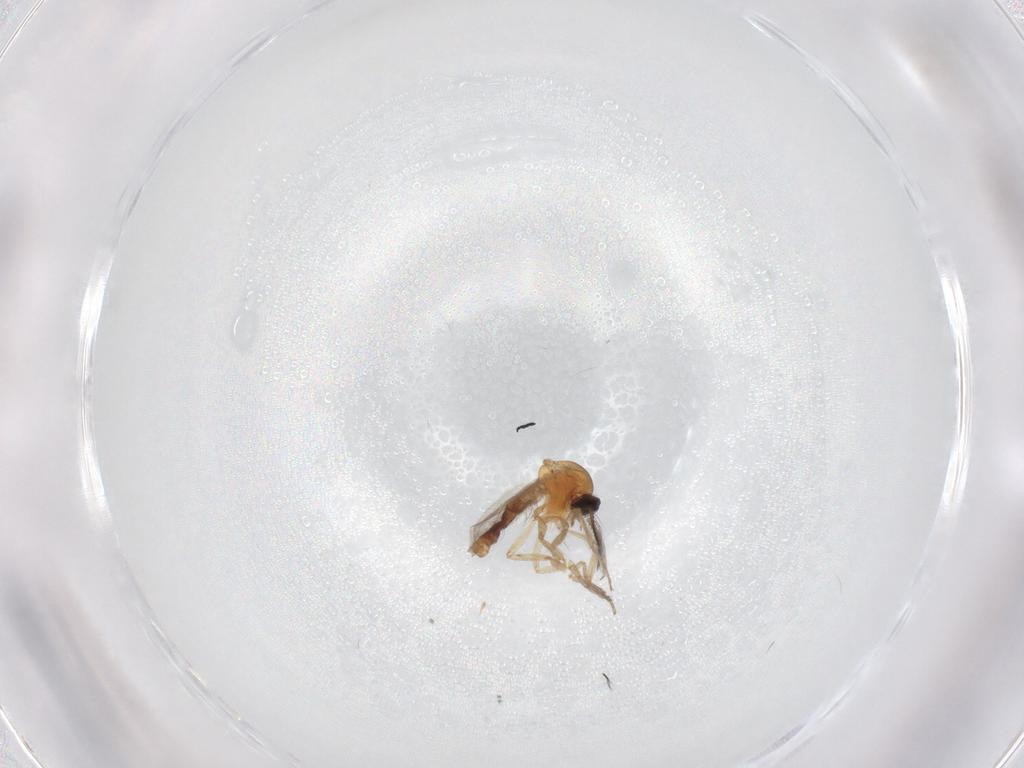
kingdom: Animalia
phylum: Arthropoda
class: Insecta
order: Diptera
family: Ceratopogonidae
